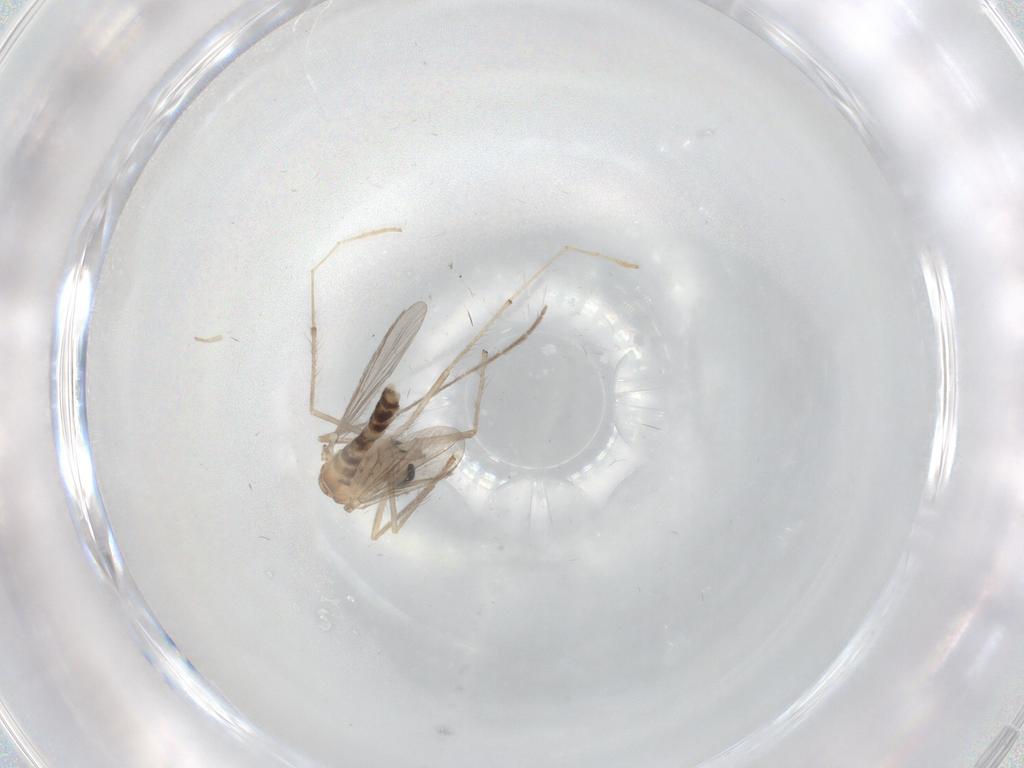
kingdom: Animalia
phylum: Arthropoda
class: Insecta
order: Diptera
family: Chironomidae
